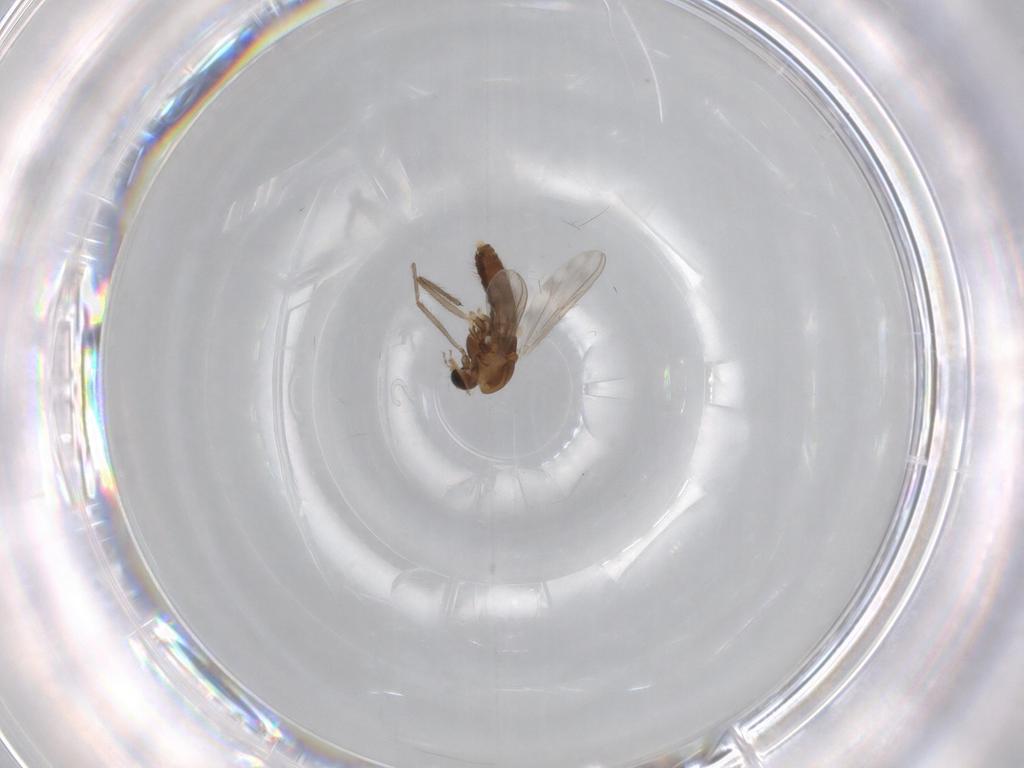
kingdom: Animalia
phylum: Arthropoda
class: Insecta
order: Diptera
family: Chironomidae
